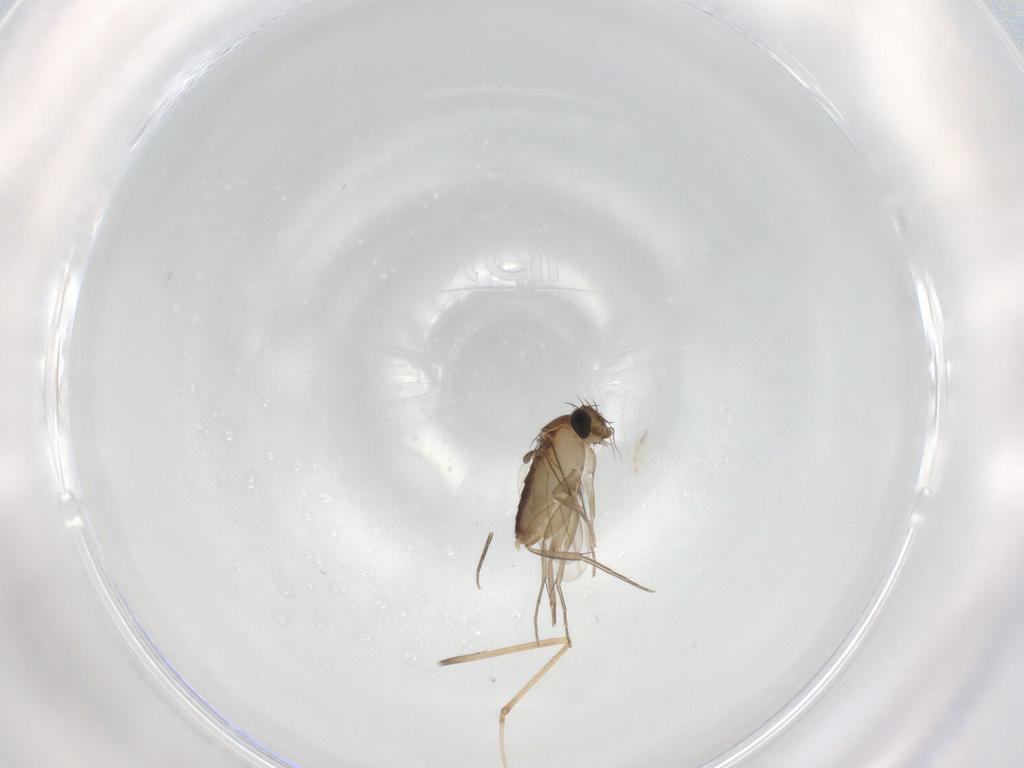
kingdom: Animalia
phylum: Arthropoda
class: Insecta
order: Diptera
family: Phoridae
